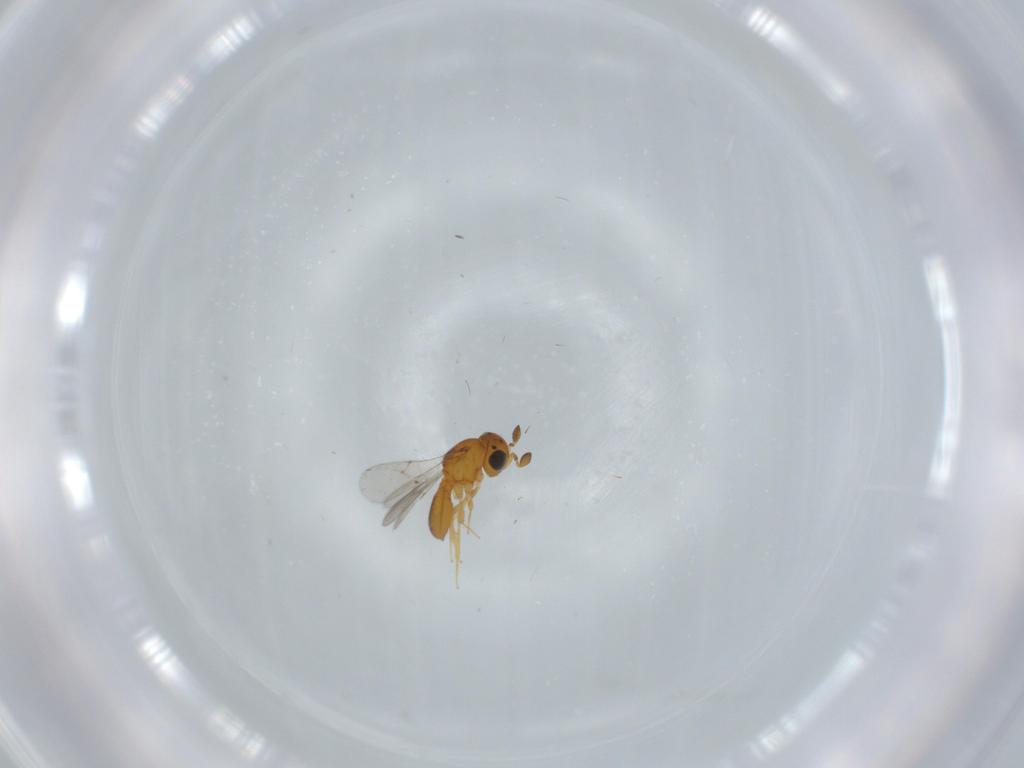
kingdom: Animalia
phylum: Arthropoda
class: Insecta
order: Hymenoptera
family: Scelionidae
